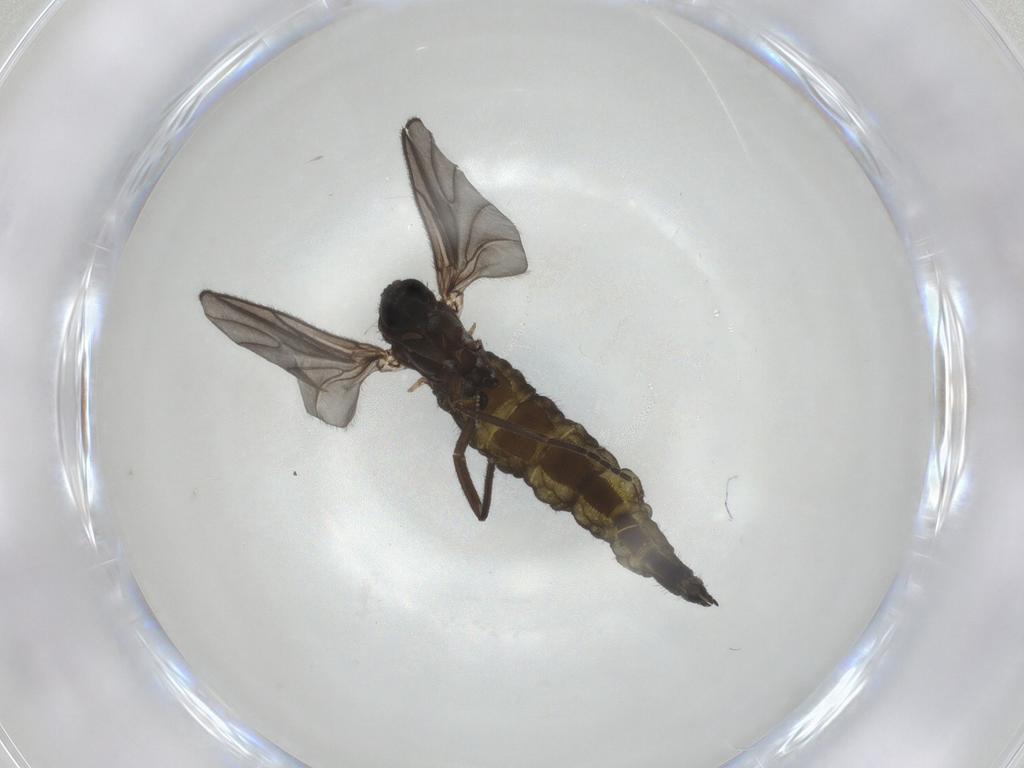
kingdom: Animalia
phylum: Arthropoda
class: Insecta
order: Diptera
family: Sciaridae
